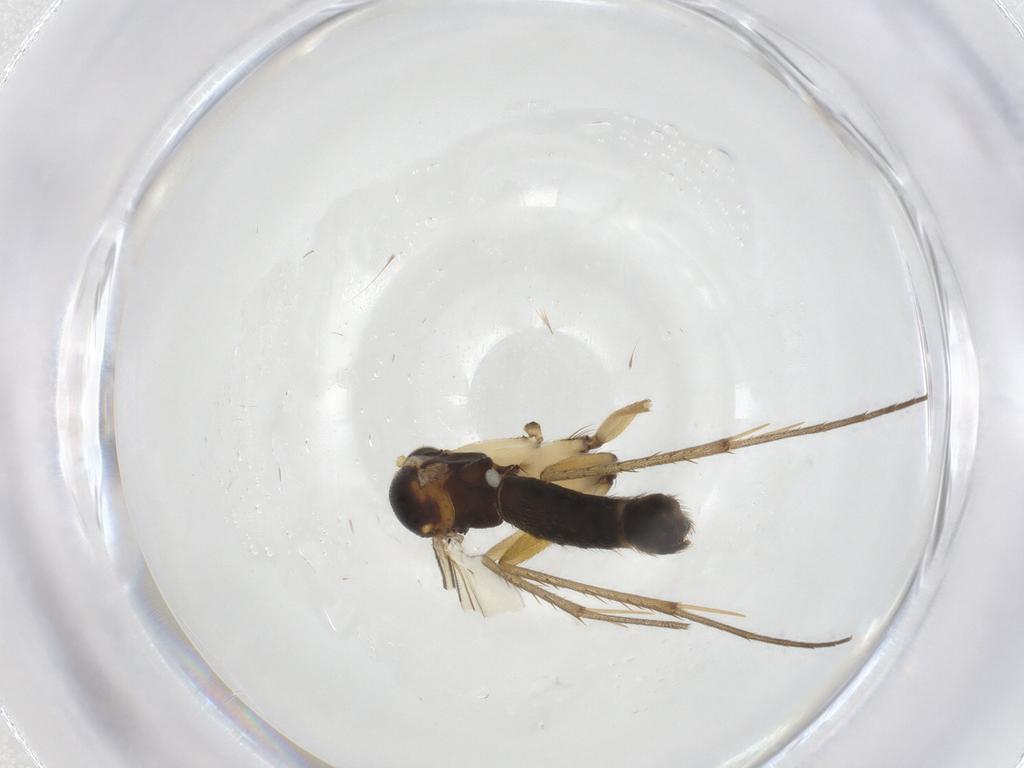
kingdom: Animalia
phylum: Arthropoda
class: Insecta
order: Diptera
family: Mycetophilidae
